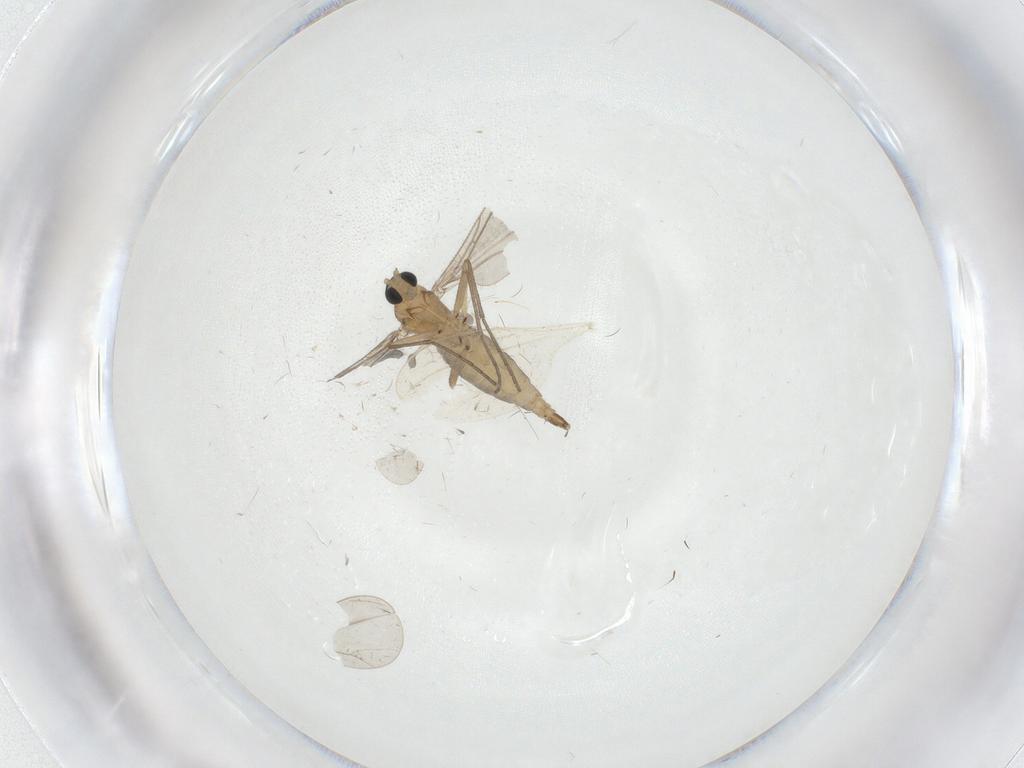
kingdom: Animalia
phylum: Arthropoda
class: Insecta
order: Diptera
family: Sciaridae
